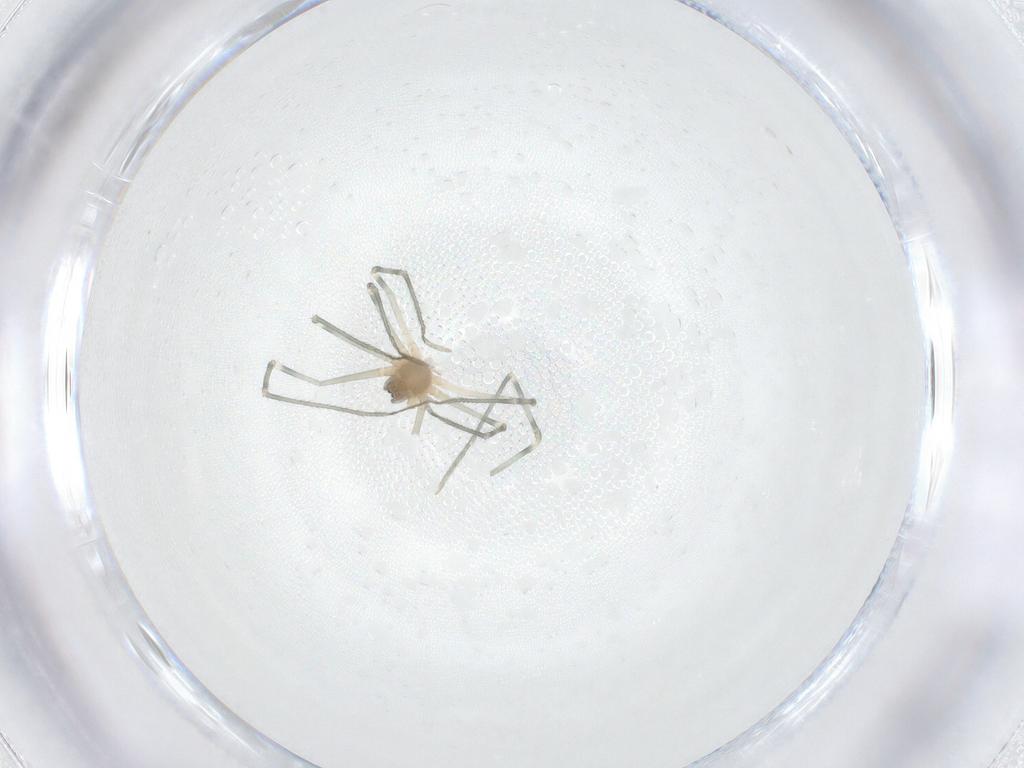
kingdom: Animalia
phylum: Arthropoda
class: Arachnida
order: Araneae
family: Pholcidae
